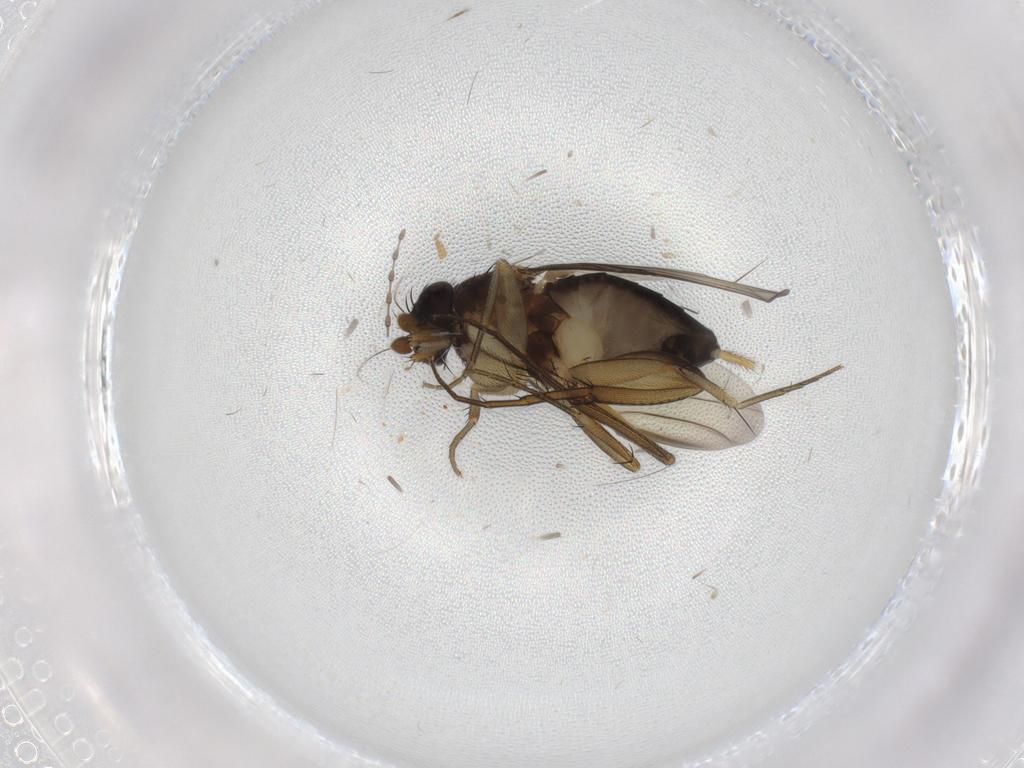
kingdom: Animalia
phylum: Arthropoda
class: Insecta
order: Diptera
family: Phoridae
